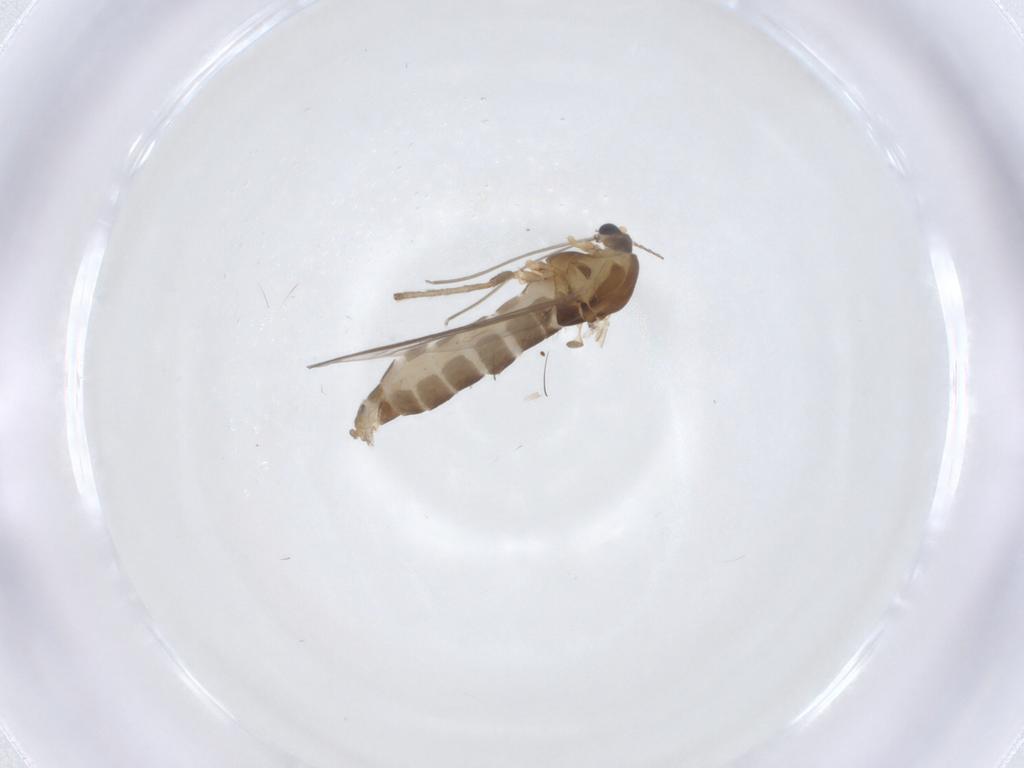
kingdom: Animalia
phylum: Arthropoda
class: Insecta
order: Diptera
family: Chironomidae
